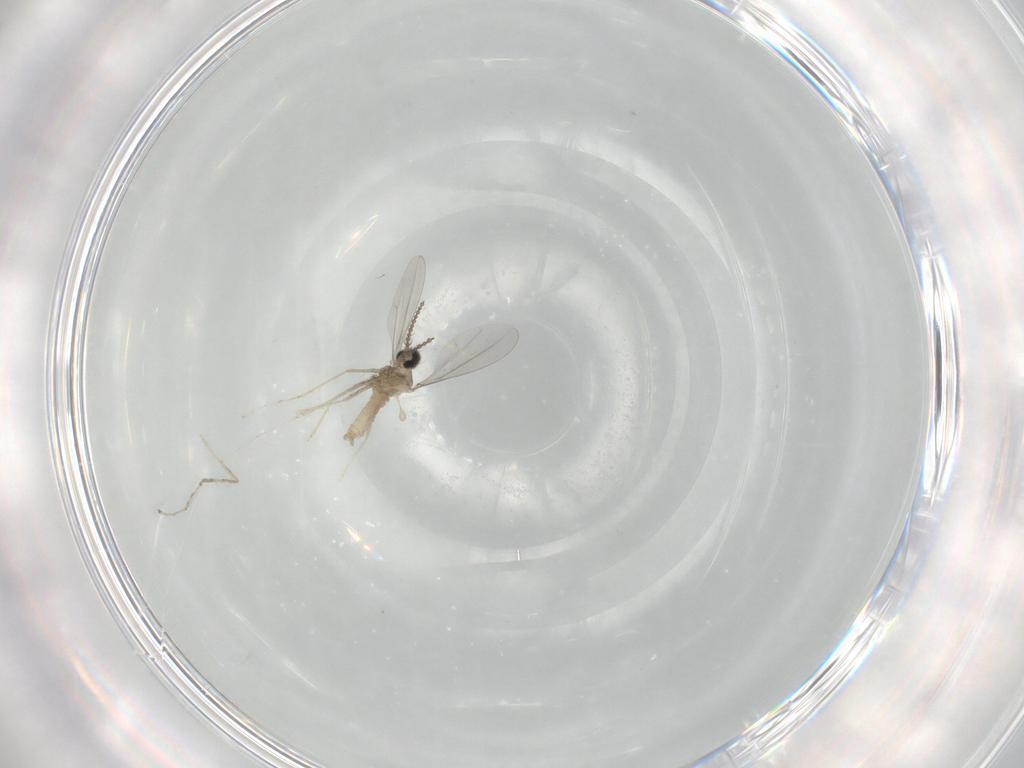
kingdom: Animalia
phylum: Arthropoda
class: Insecta
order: Diptera
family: Cecidomyiidae
